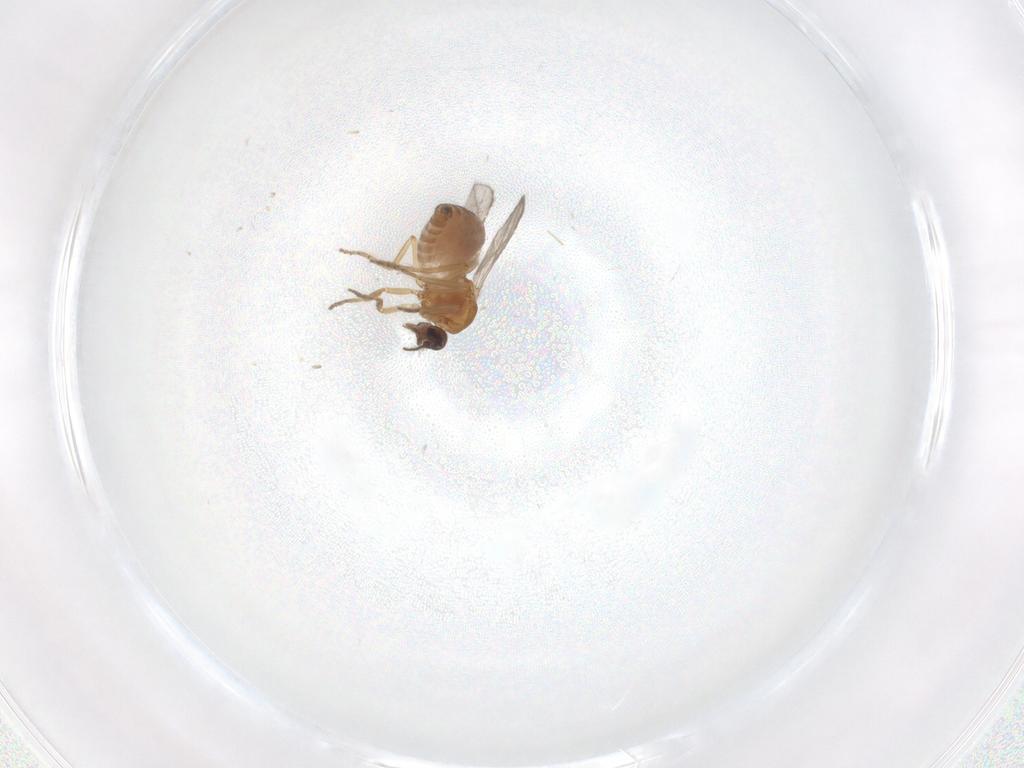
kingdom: Animalia
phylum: Arthropoda
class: Insecta
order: Diptera
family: Ceratopogonidae
